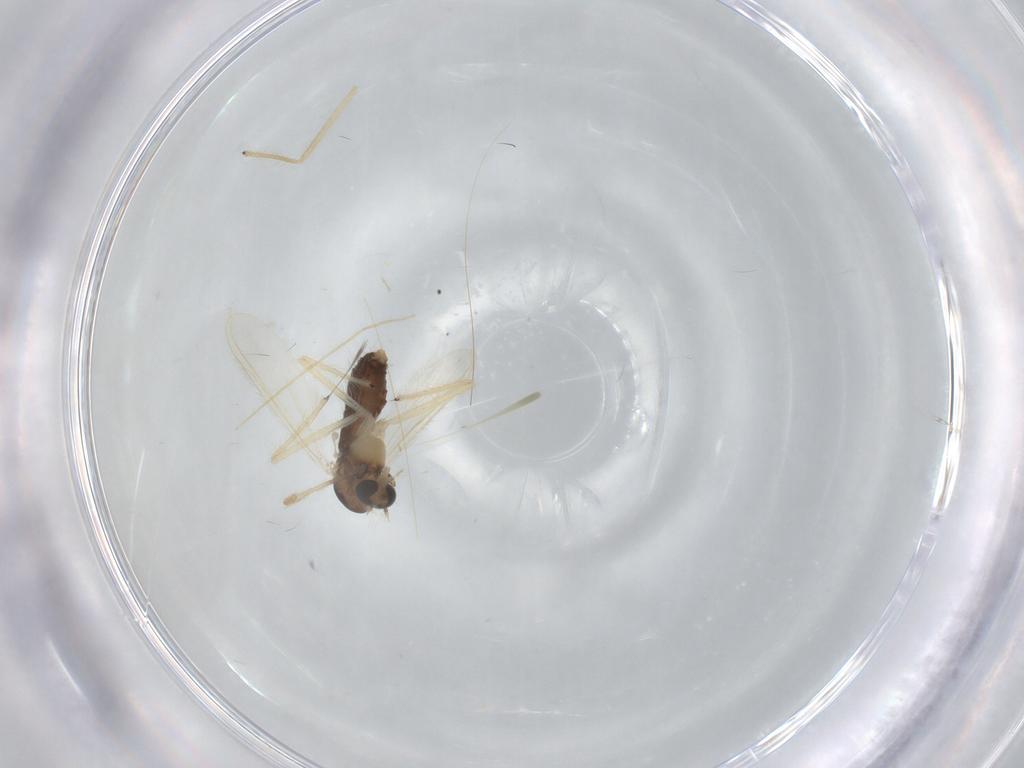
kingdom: Animalia
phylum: Arthropoda
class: Insecta
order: Diptera
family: Chironomidae
